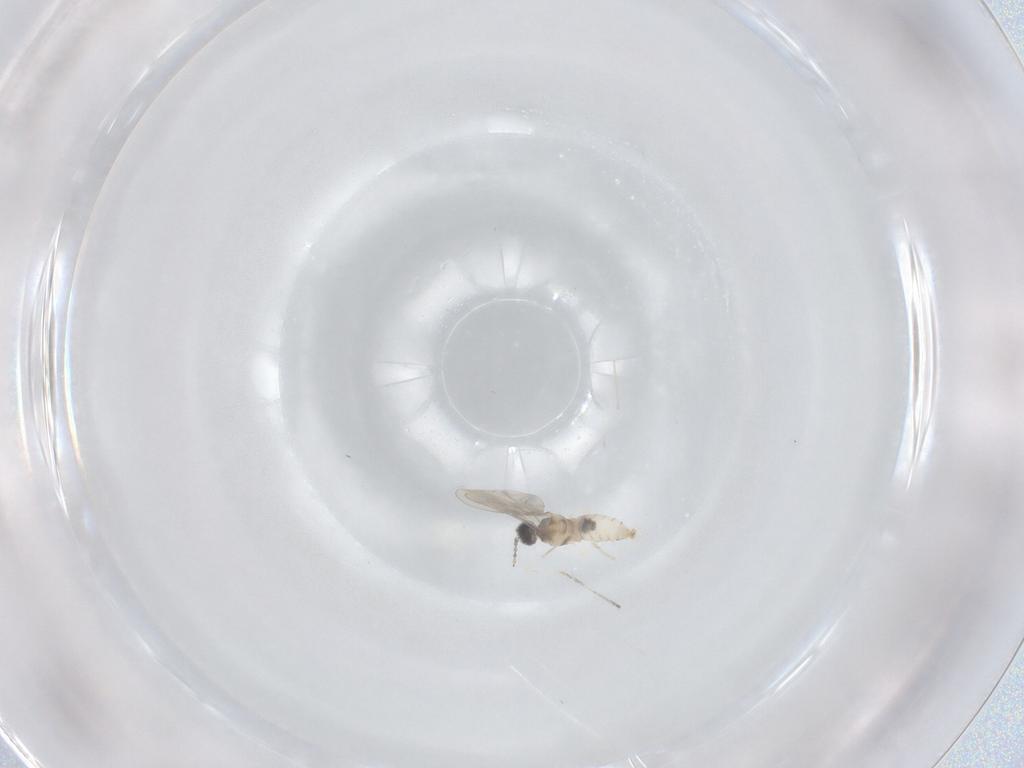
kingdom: Animalia
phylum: Arthropoda
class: Insecta
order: Diptera
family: Cecidomyiidae
